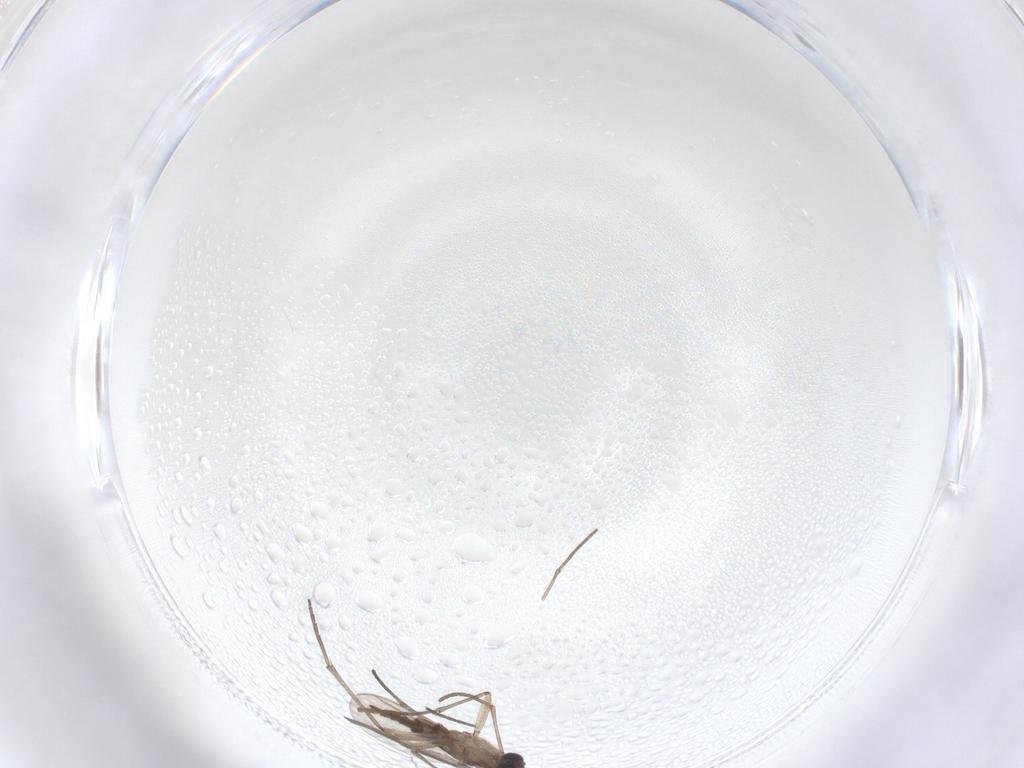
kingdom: Animalia
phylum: Arthropoda
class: Insecta
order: Diptera
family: Sciaridae
